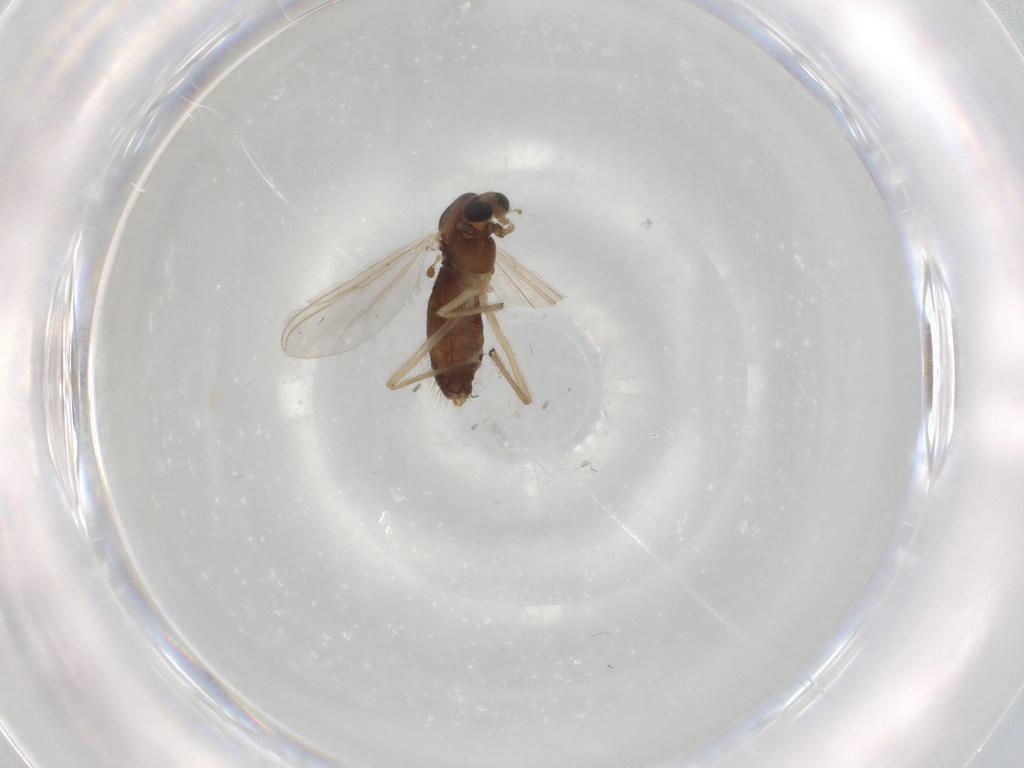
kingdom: Animalia
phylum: Arthropoda
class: Insecta
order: Diptera
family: Chironomidae
